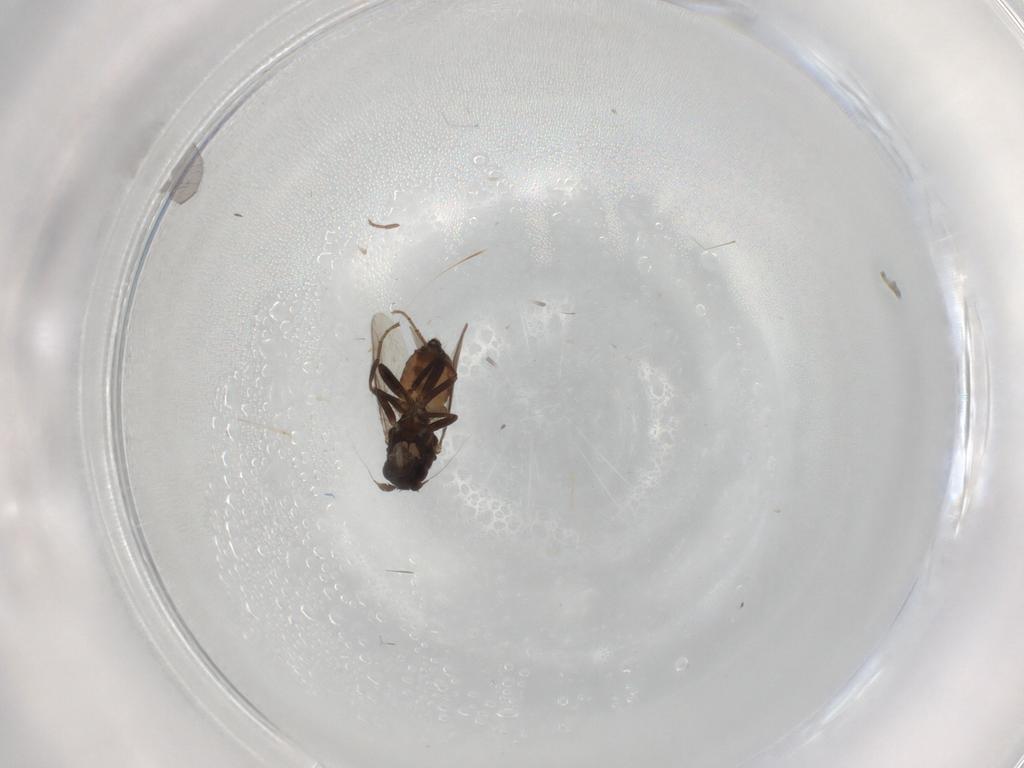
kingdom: Animalia
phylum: Arthropoda
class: Insecta
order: Diptera
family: Sphaeroceridae
